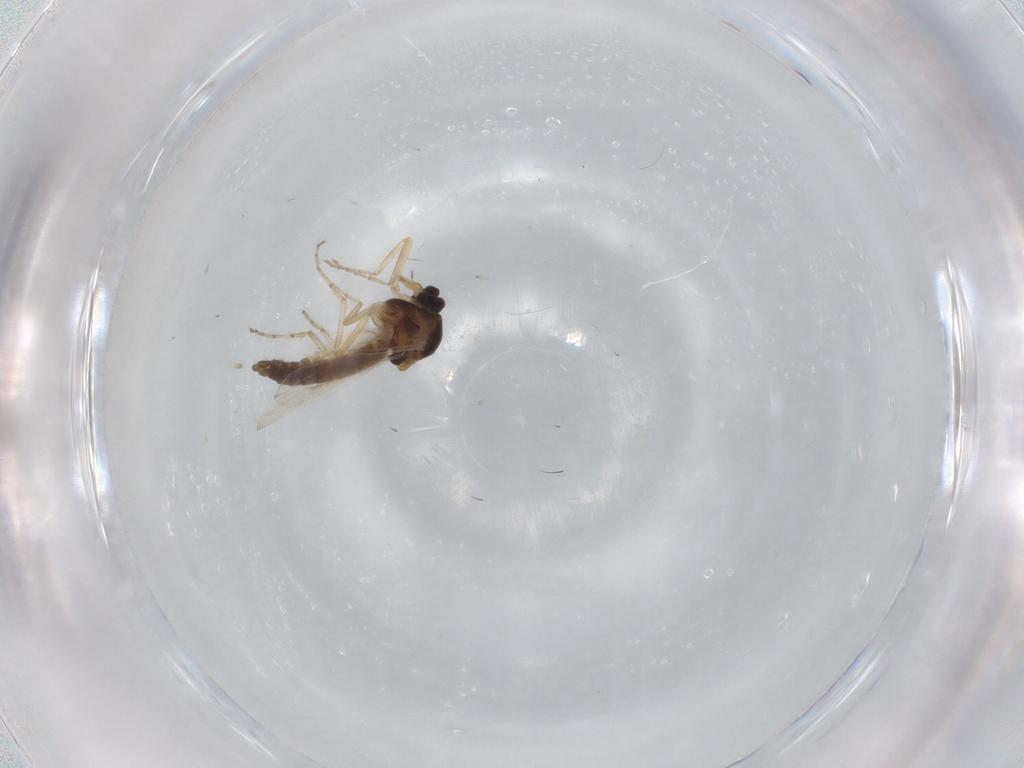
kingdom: Animalia
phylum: Arthropoda
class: Insecta
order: Diptera
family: Ceratopogonidae
